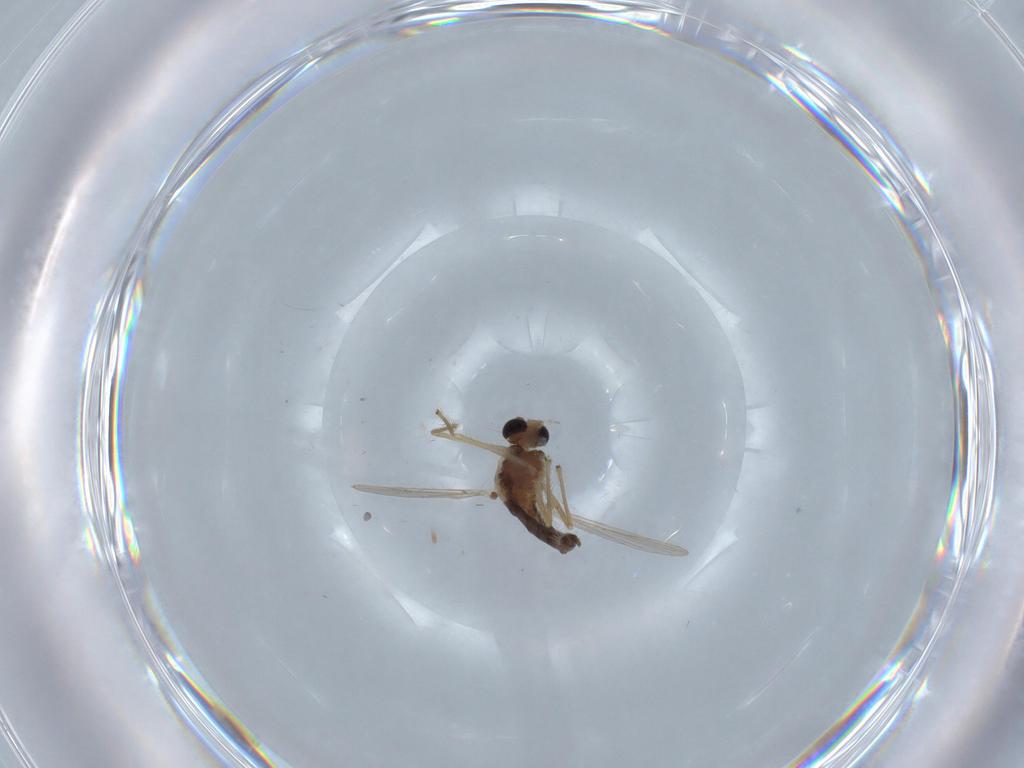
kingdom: Animalia
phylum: Arthropoda
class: Insecta
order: Diptera
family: Chironomidae
